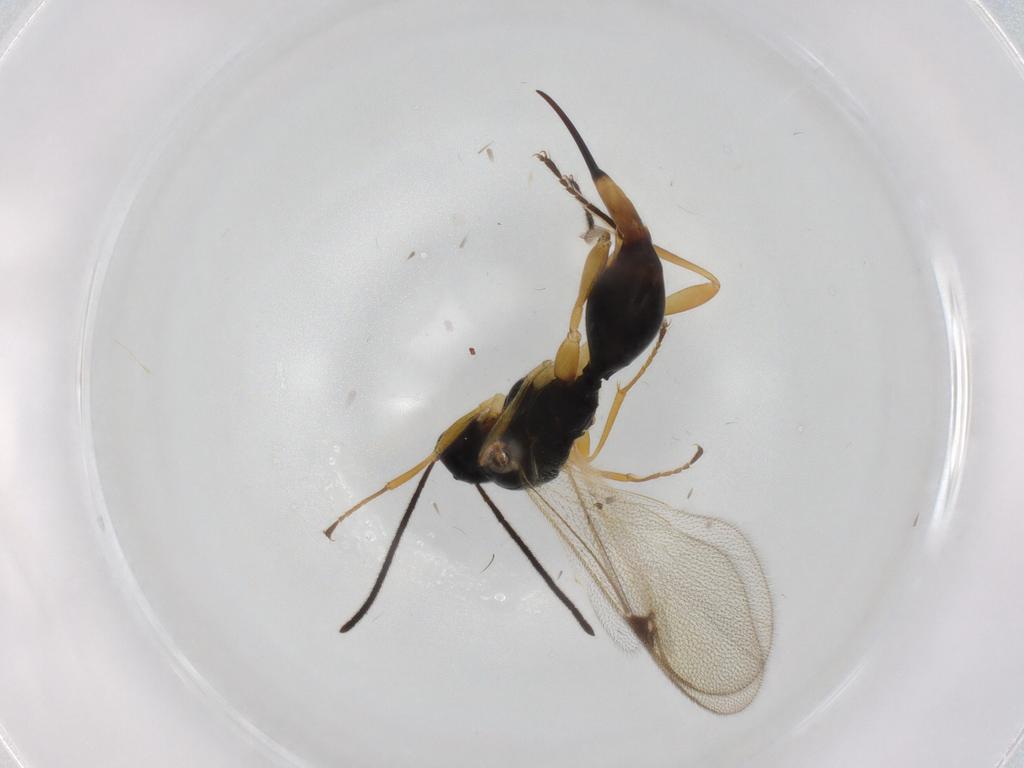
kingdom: Animalia
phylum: Arthropoda
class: Insecta
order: Hymenoptera
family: Proctotrupidae
